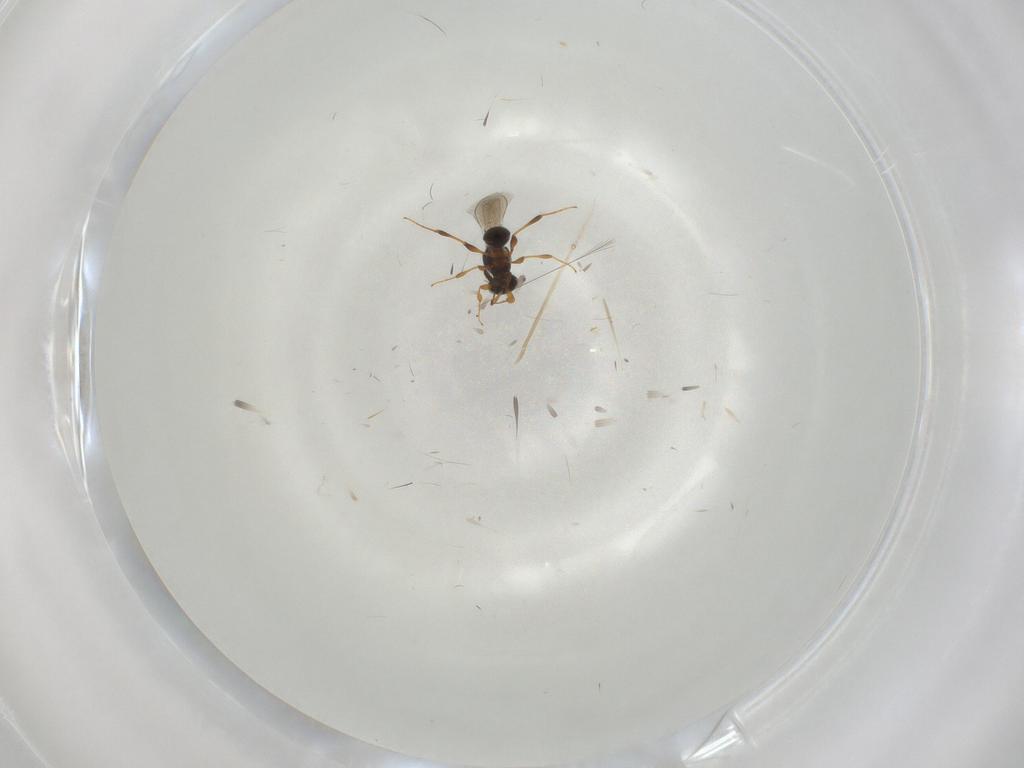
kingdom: Animalia
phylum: Arthropoda
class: Insecta
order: Hymenoptera
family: Platygastridae
